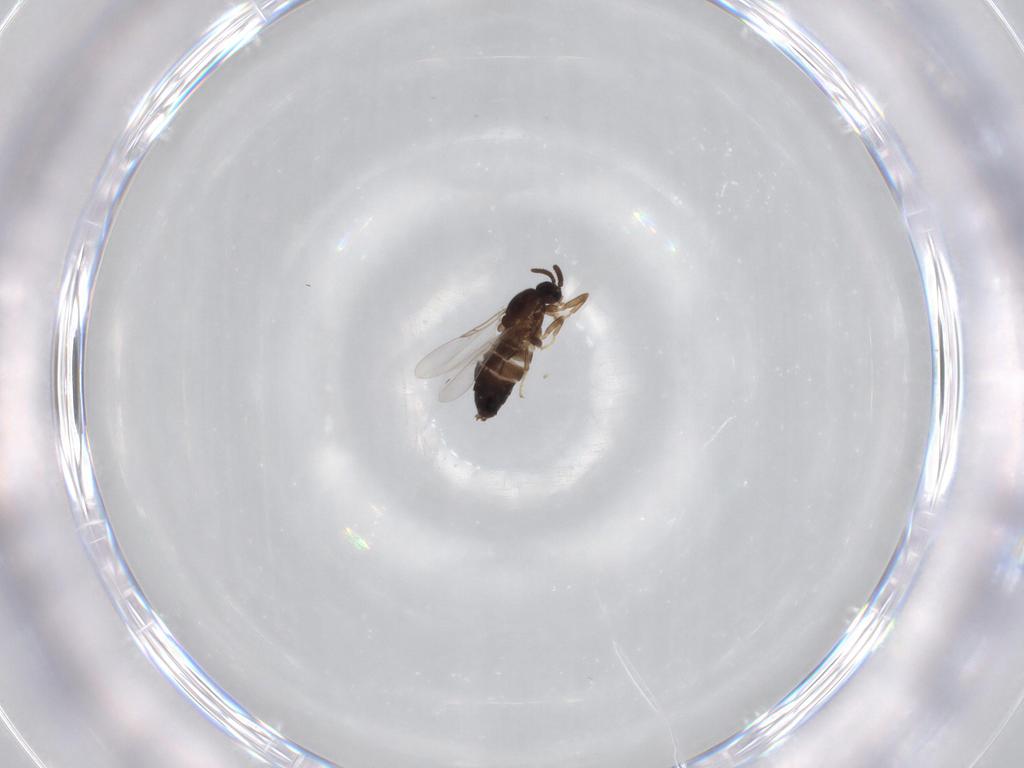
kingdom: Animalia
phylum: Arthropoda
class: Insecta
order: Diptera
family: Scatopsidae
